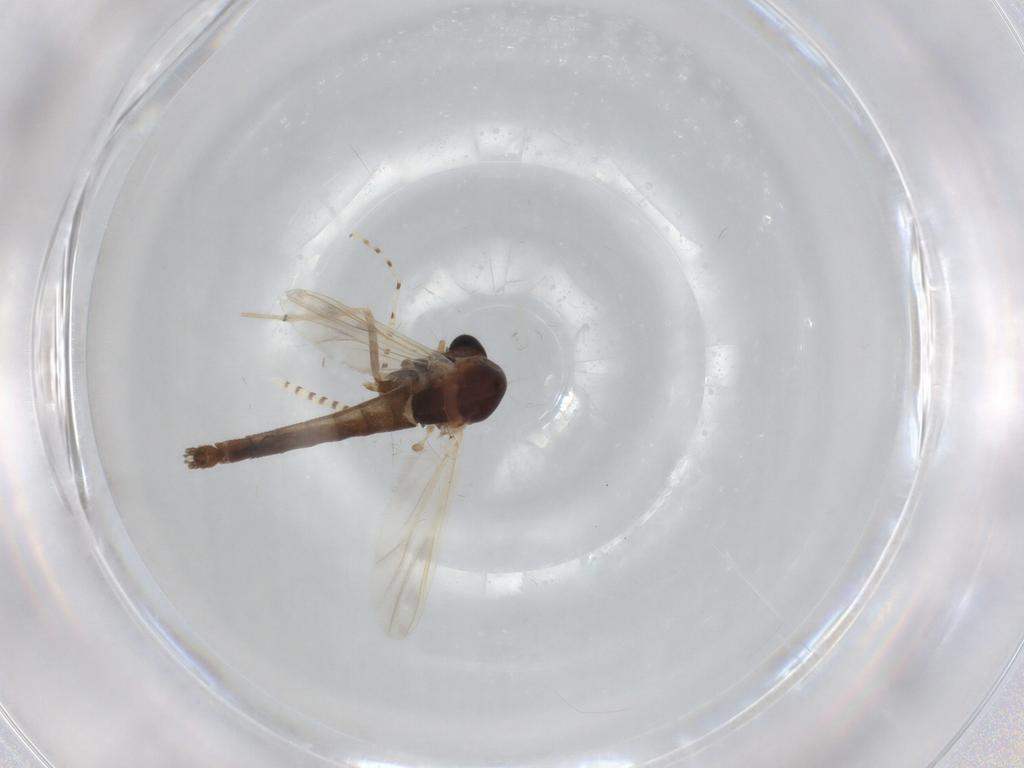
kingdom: Animalia
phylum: Arthropoda
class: Insecta
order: Diptera
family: Chironomidae
